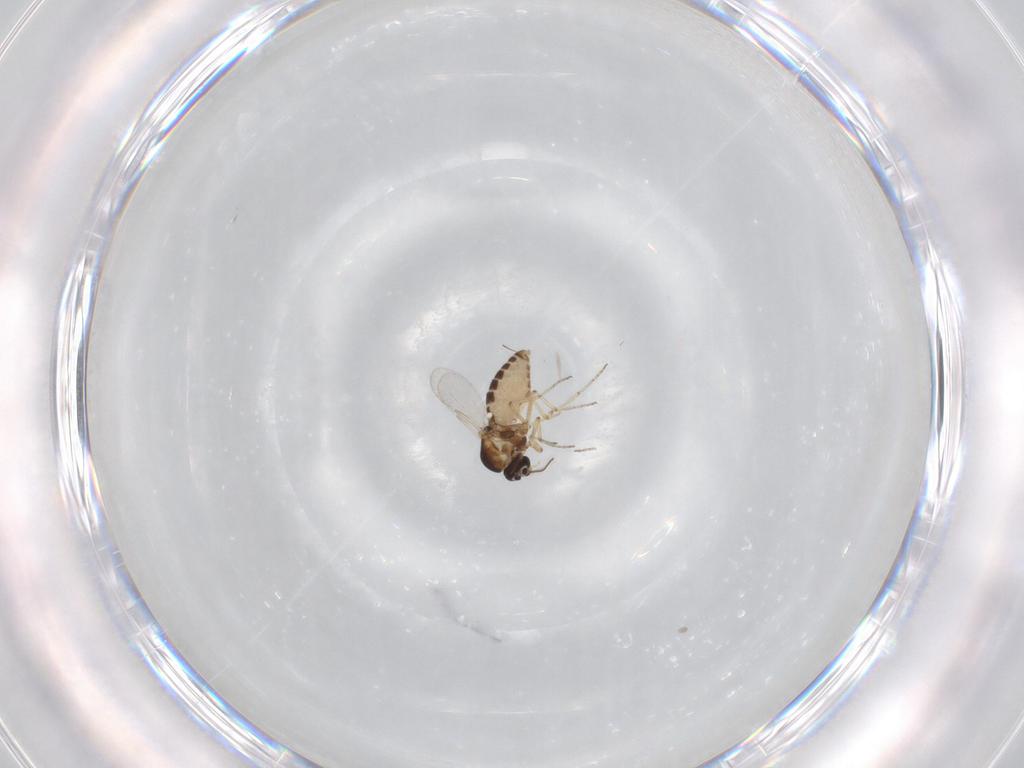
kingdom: Animalia
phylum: Arthropoda
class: Insecta
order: Diptera
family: Ceratopogonidae
